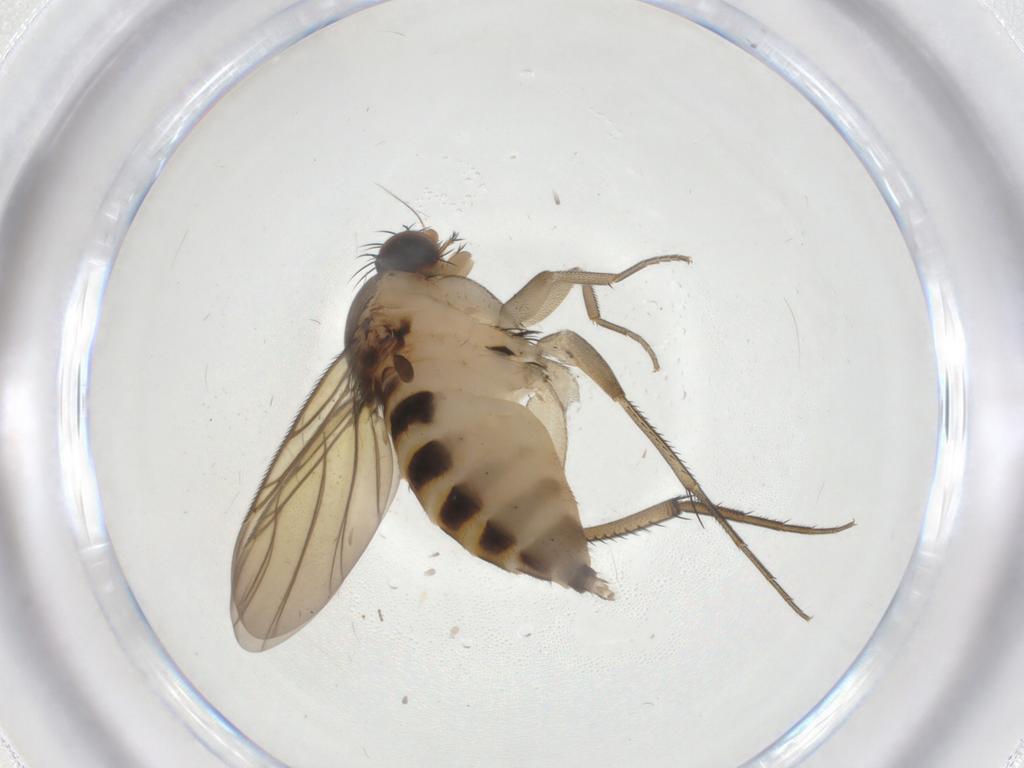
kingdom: Animalia
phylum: Arthropoda
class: Insecta
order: Diptera
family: Phoridae
